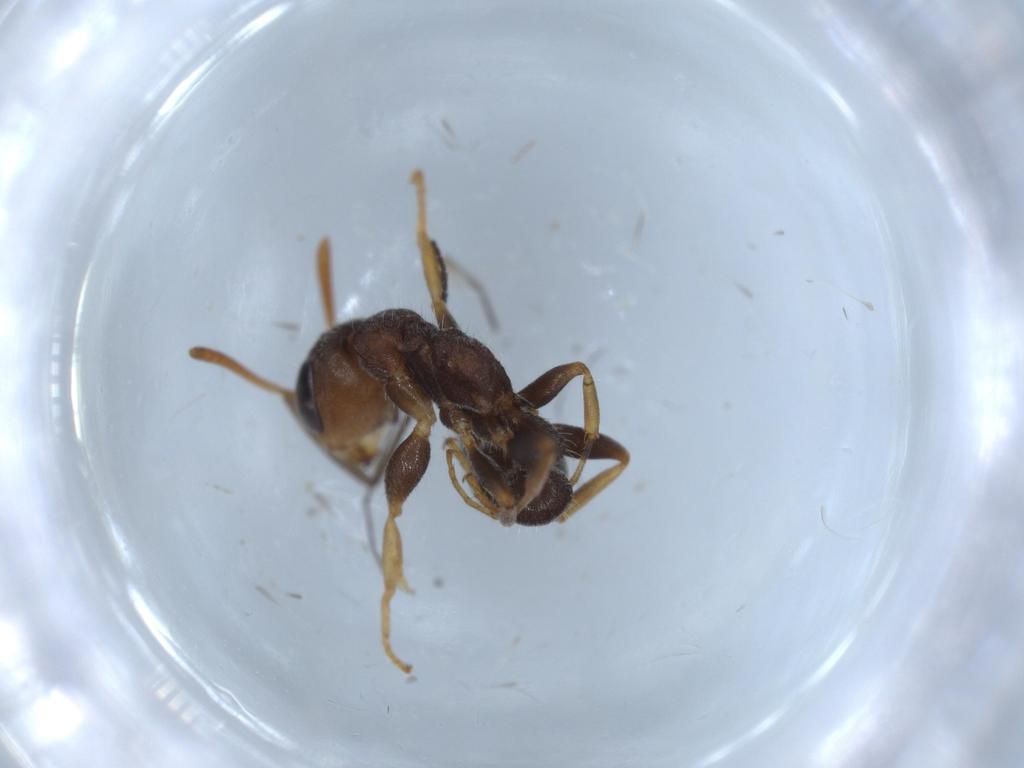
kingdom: Animalia
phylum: Arthropoda
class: Insecta
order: Hymenoptera
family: Formicidae
